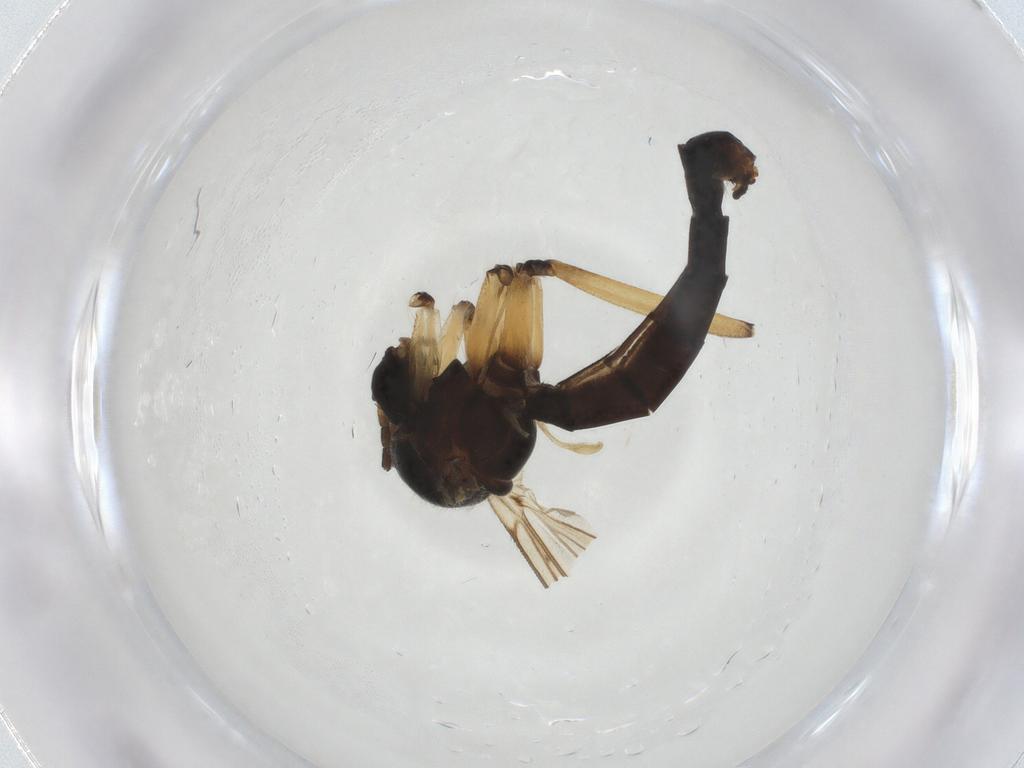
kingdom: Animalia
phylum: Arthropoda
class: Insecta
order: Diptera
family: Mycetophilidae
